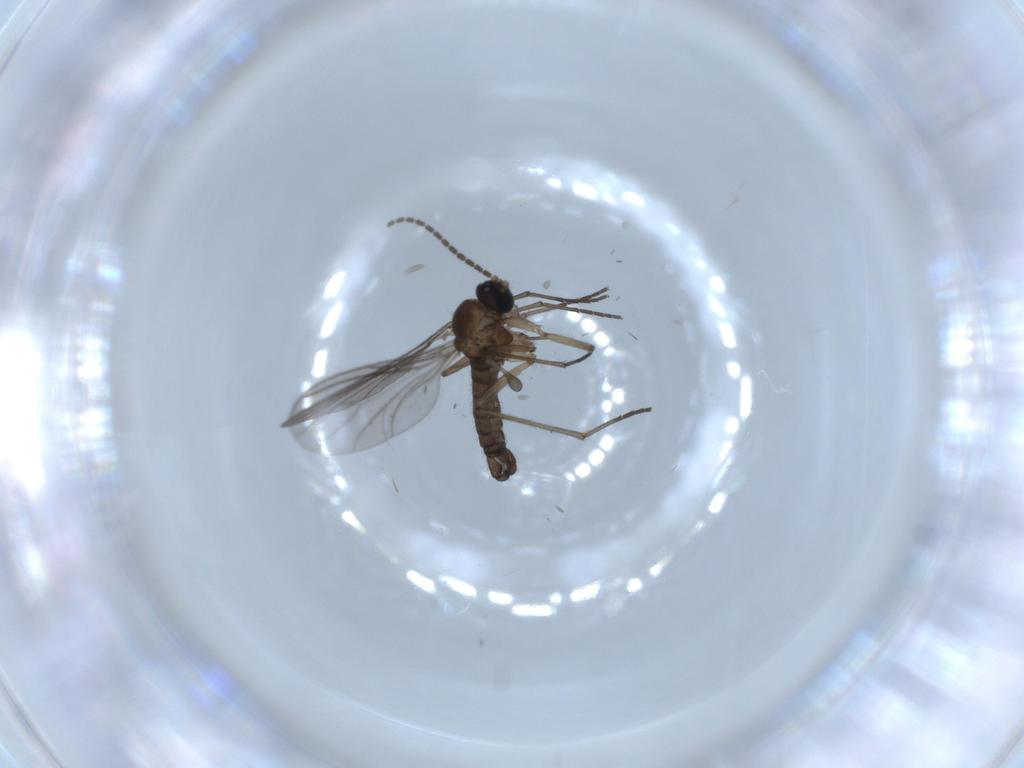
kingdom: Animalia
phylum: Arthropoda
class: Insecta
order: Diptera
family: Sciaridae
